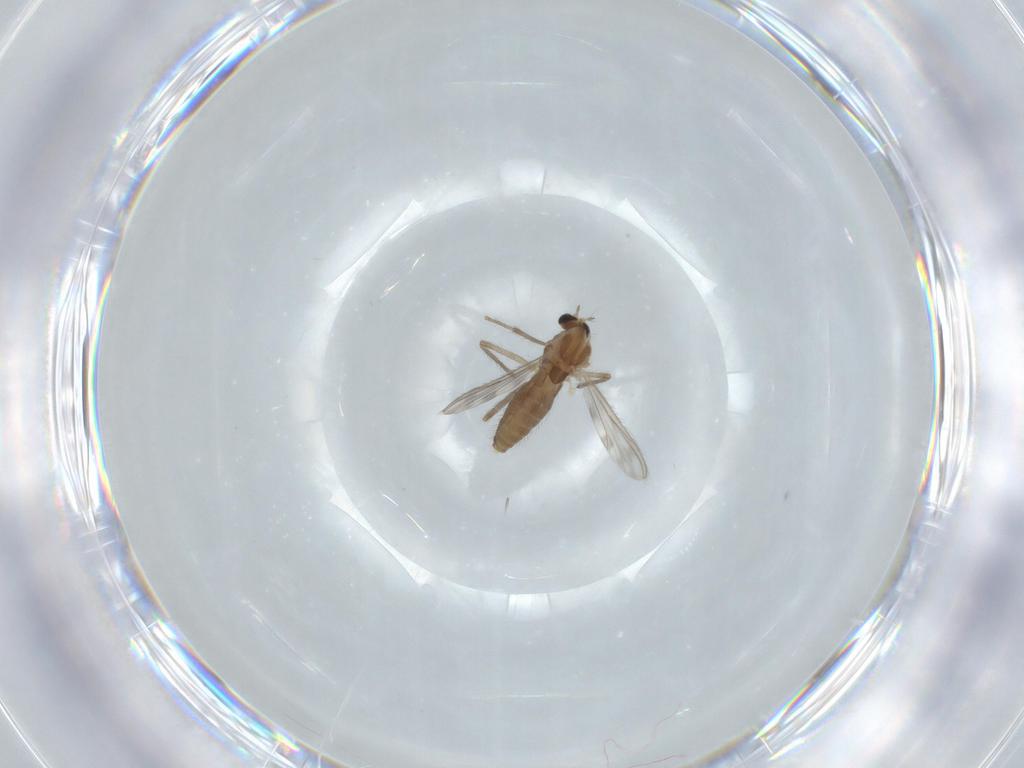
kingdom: Animalia
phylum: Arthropoda
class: Insecta
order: Diptera
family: Chironomidae
